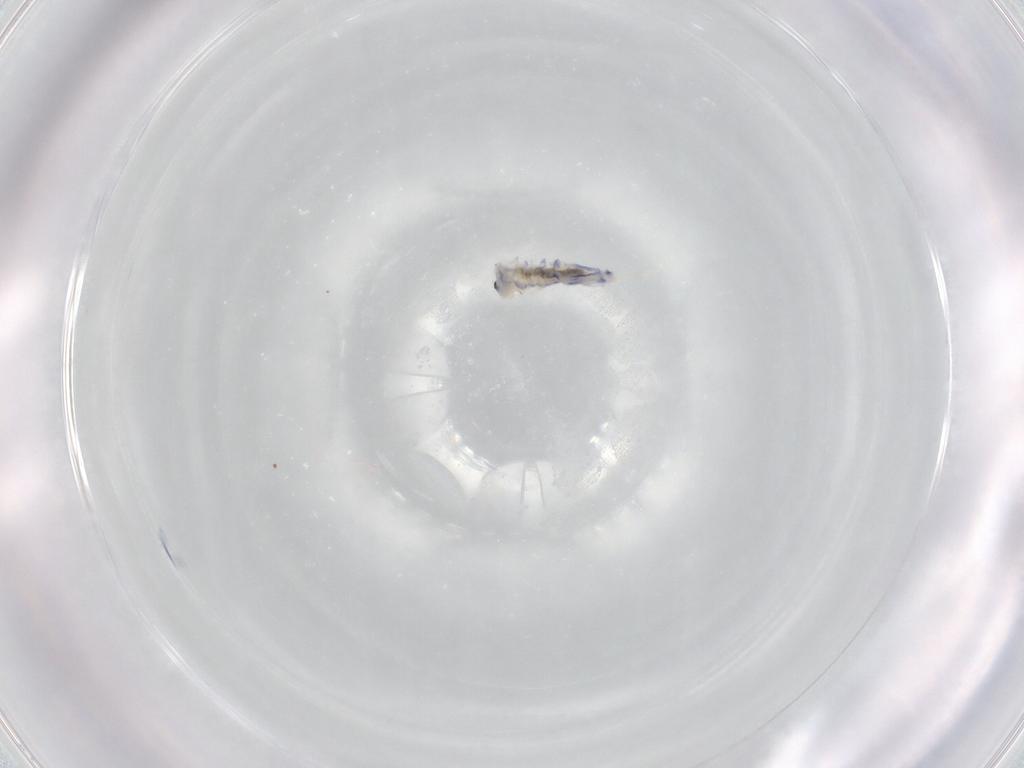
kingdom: Animalia
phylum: Arthropoda
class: Collembola
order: Entomobryomorpha
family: Entomobryidae
